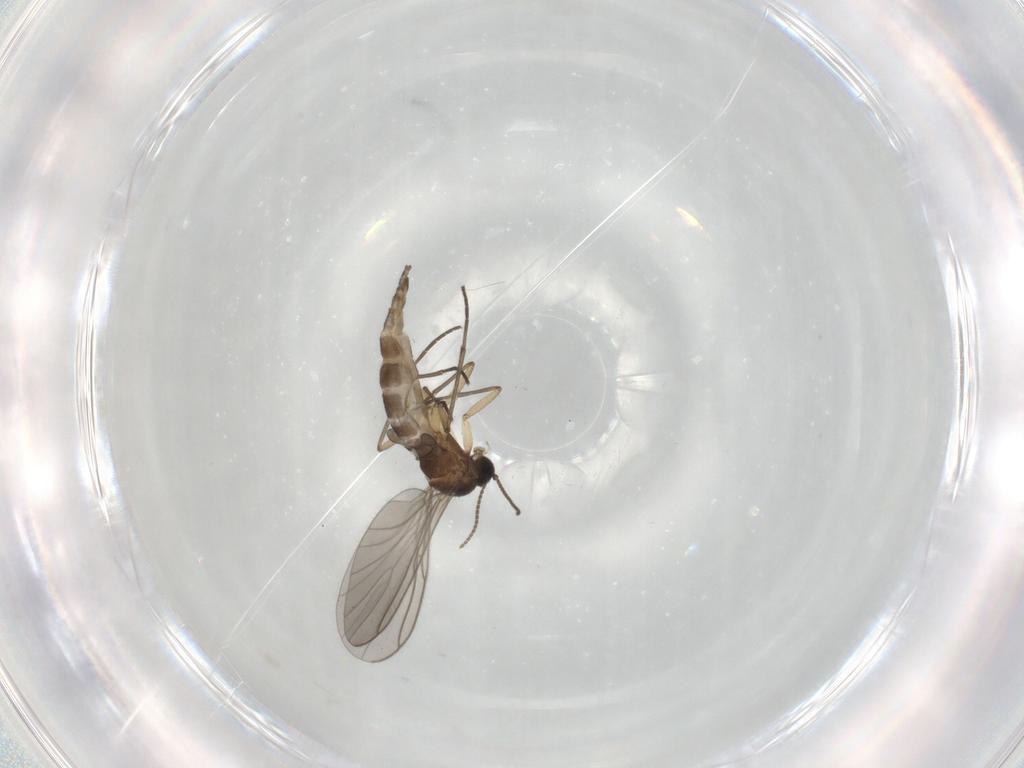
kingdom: Animalia
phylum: Arthropoda
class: Insecta
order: Diptera
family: Sciaridae
